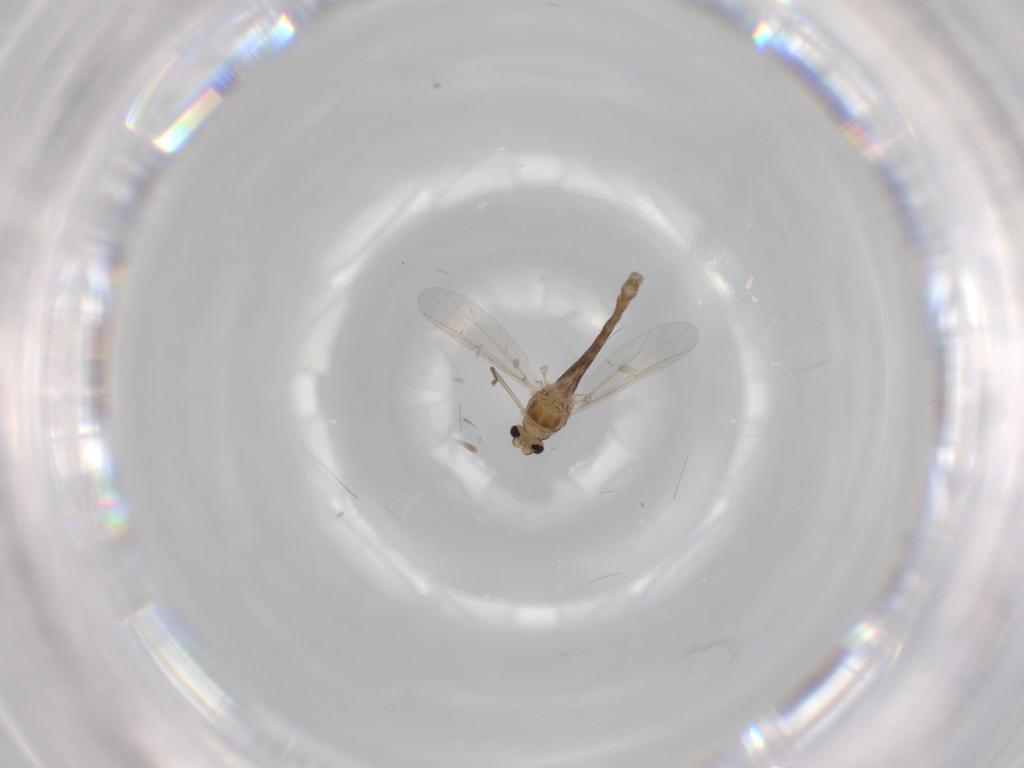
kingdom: Animalia
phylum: Arthropoda
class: Insecta
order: Diptera
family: Chironomidae
